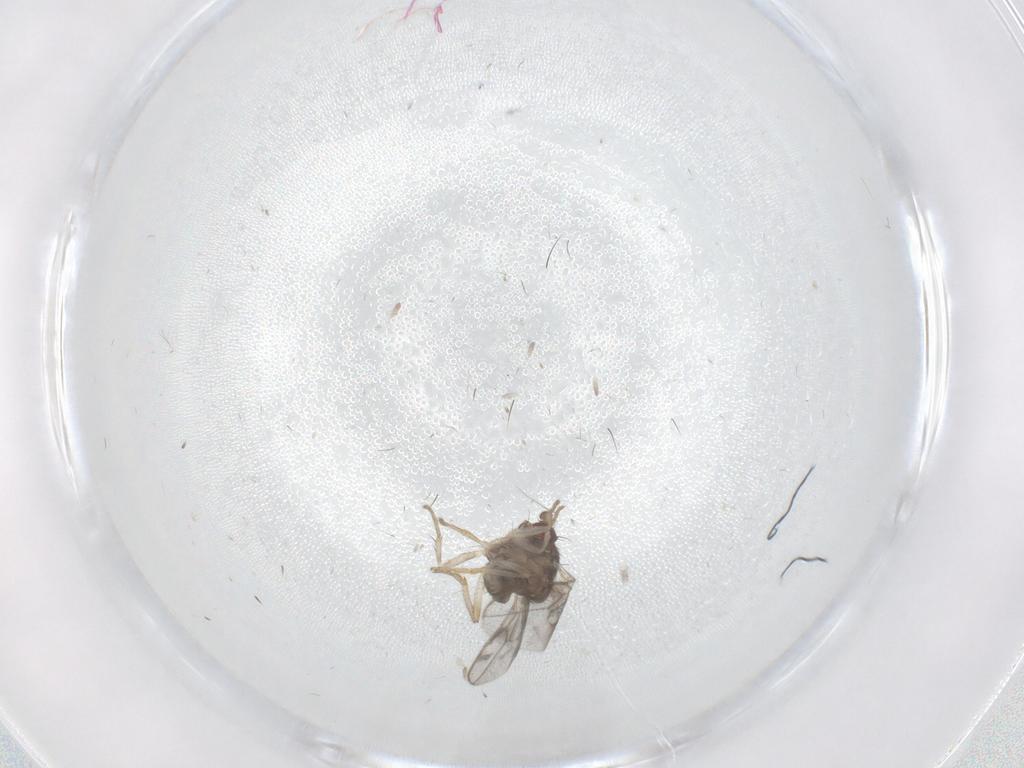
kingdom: Animalia
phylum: Arthropoda
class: Insecta
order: Diptera
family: Sphaeroceridae
